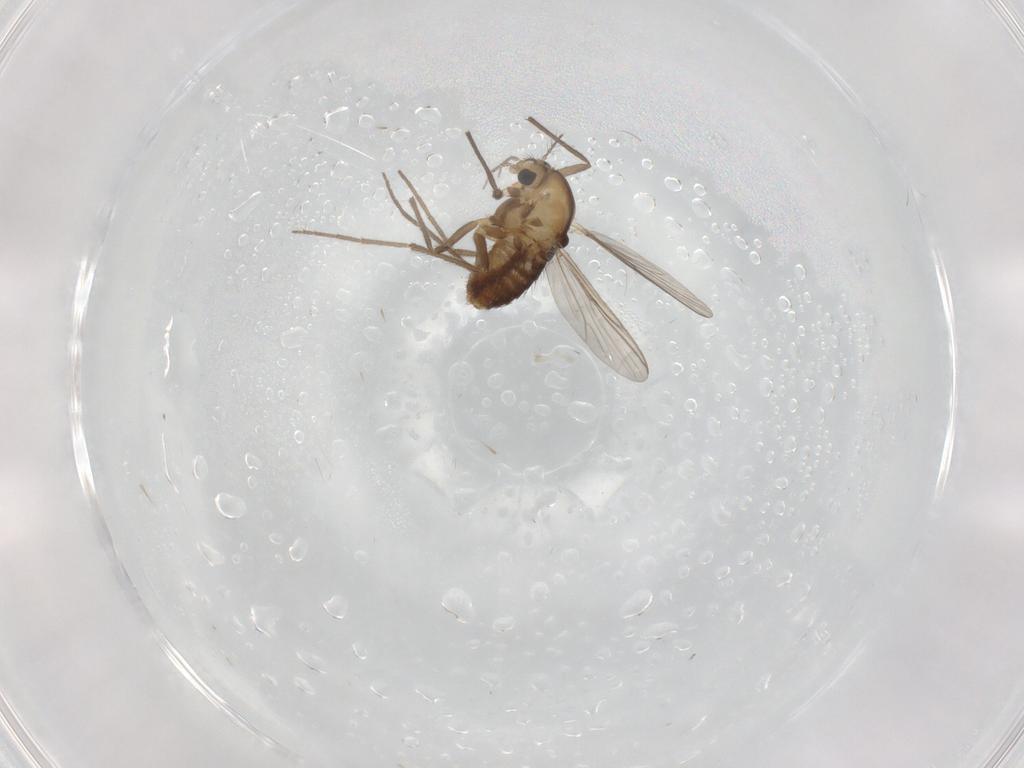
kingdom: Animalia
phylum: Arthropoda
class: Insecta
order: Diptera
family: Chironomidae
